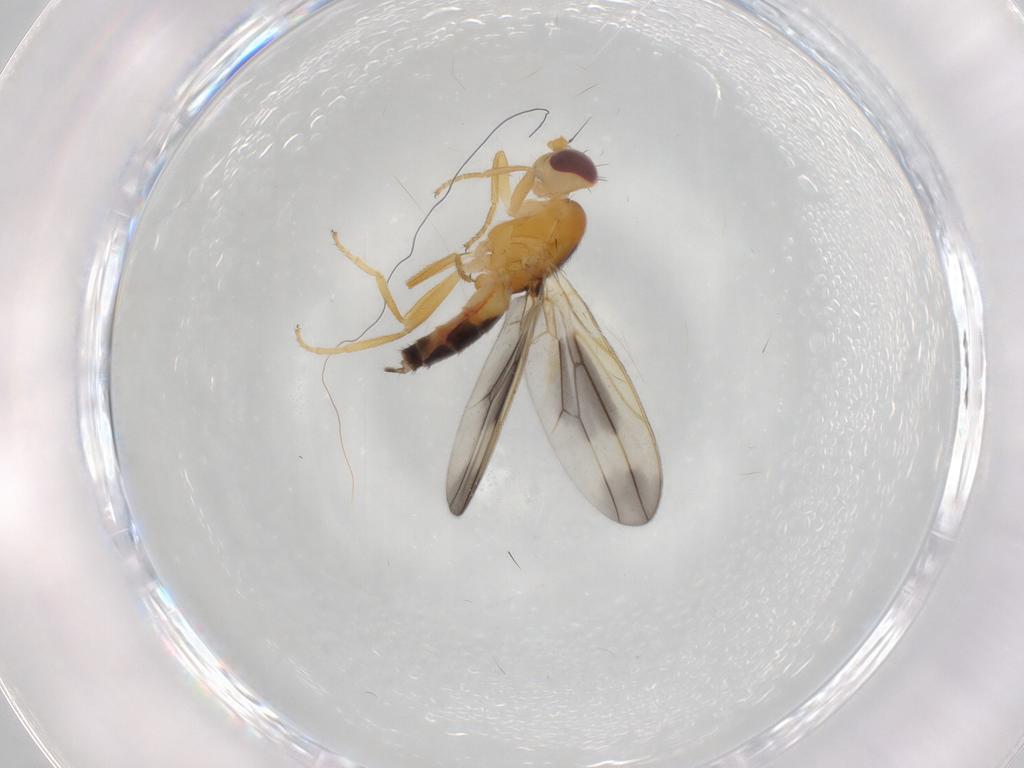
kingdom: Animalia
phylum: Arthropoda
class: Insecta
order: Diptera
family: Neurochaetidae
